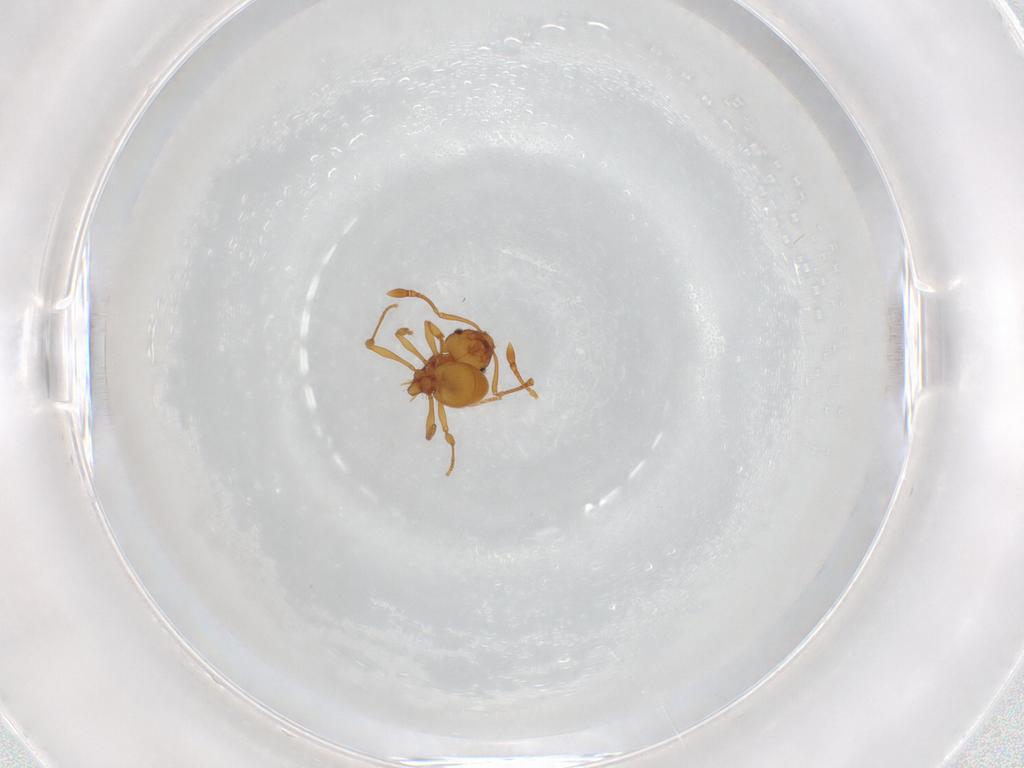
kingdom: Animalia
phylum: Arthropoda
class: Insecta
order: Hymenoptera
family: Formicidae
